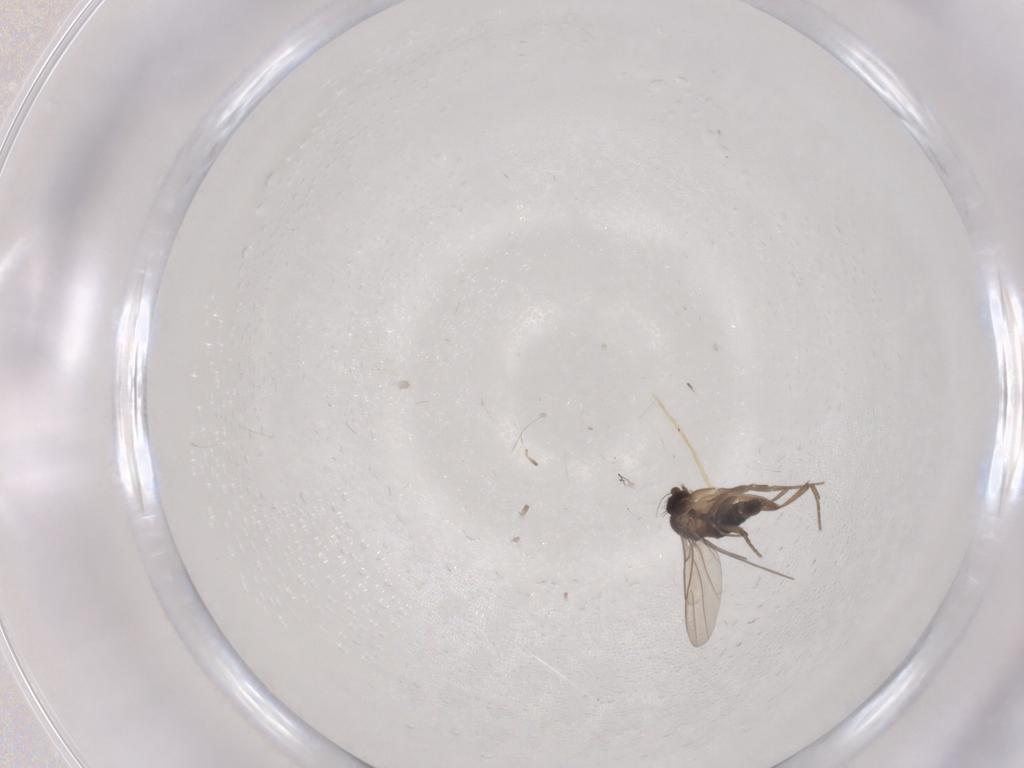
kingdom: Animalia
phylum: Arthropoda
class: Insecta
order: Diptera
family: Phoridae
